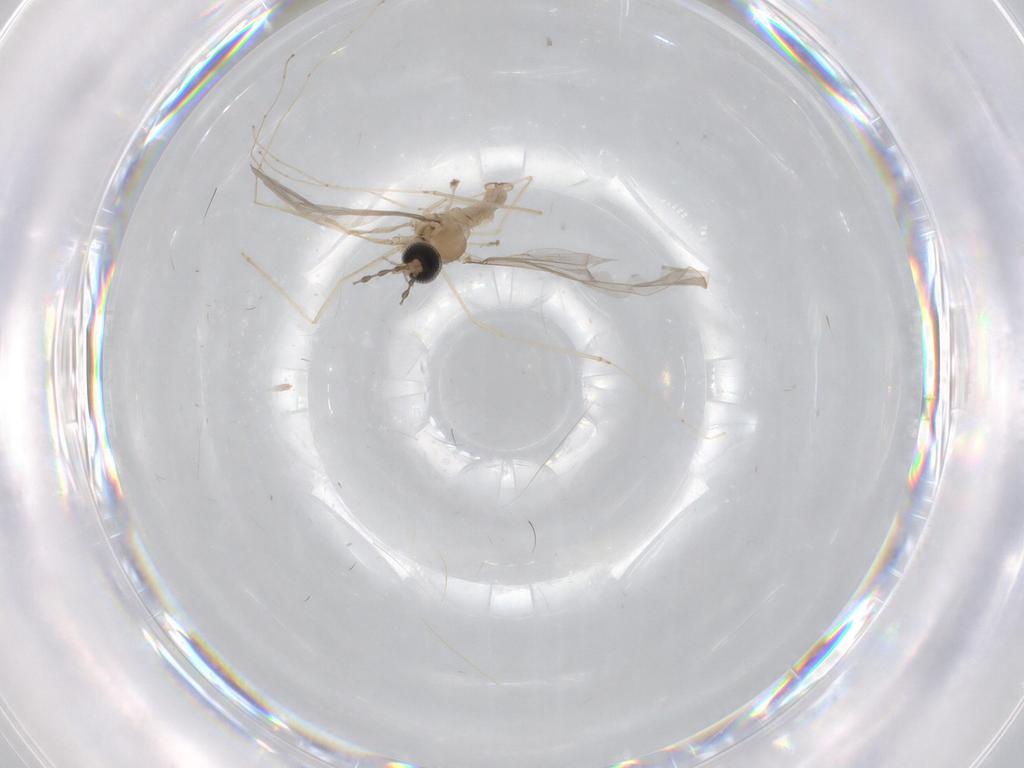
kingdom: Animalia
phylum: Arthropoda
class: Insecta
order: Diptera
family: Cecidomyiidae
